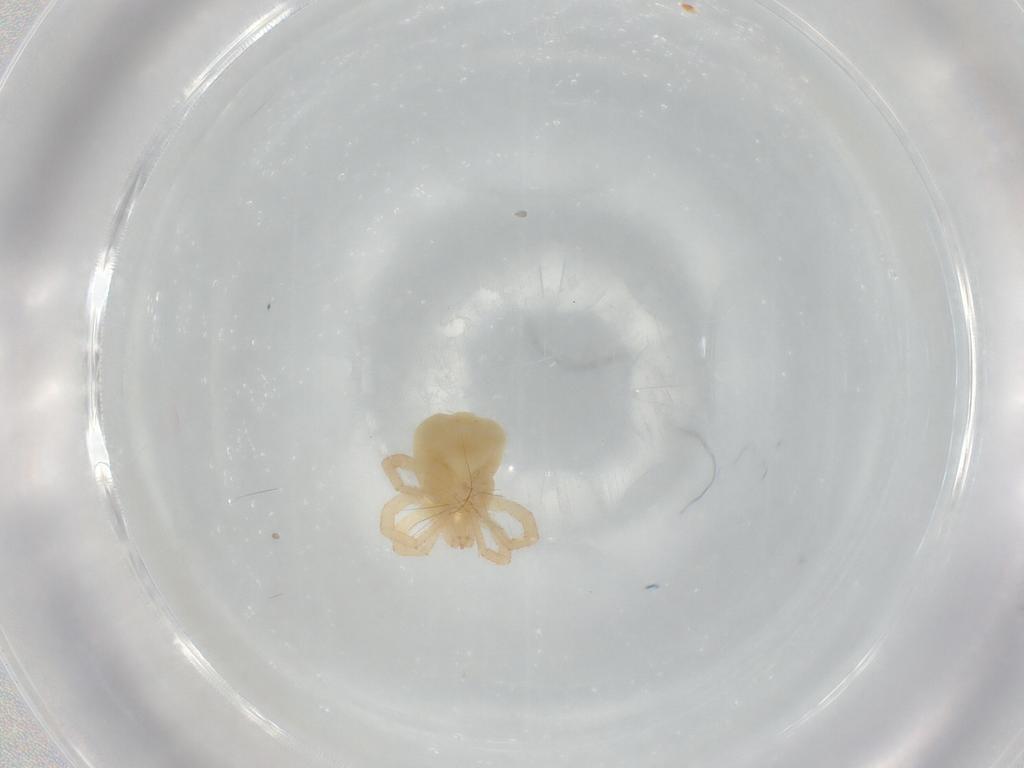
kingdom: Animalia
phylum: Arthropoda
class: Arachnida
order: Trombidiformes
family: Anystidae
